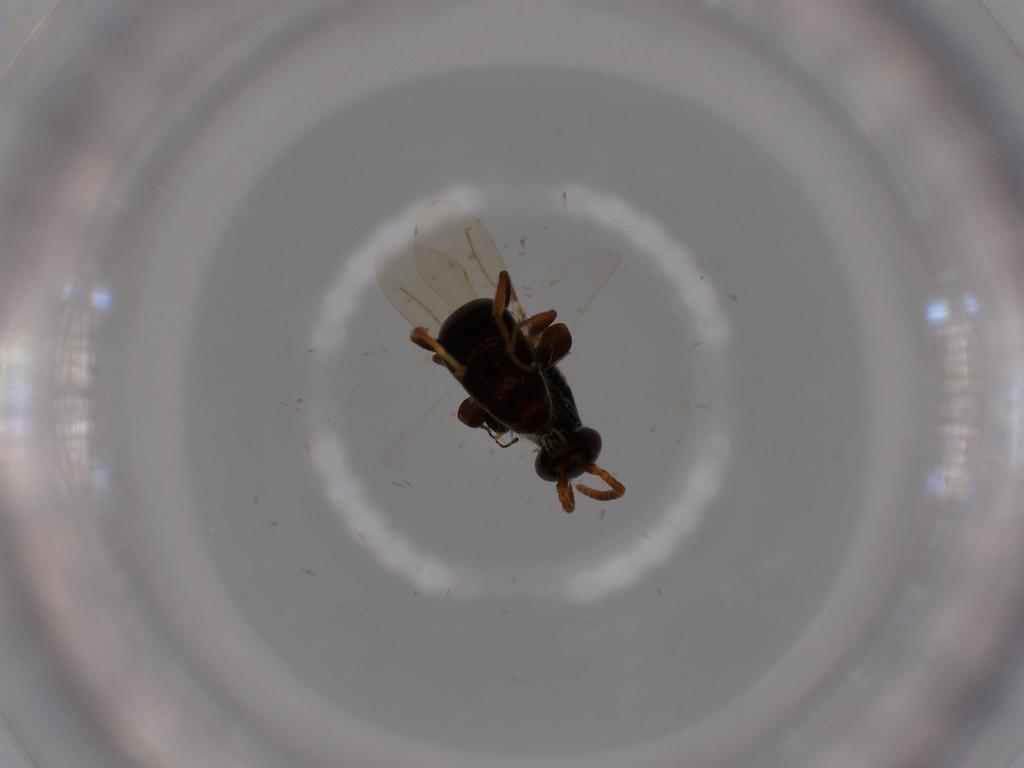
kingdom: Animalia
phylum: Arthropoda
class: Insecta
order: Hymenoptera
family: Bethylidae
